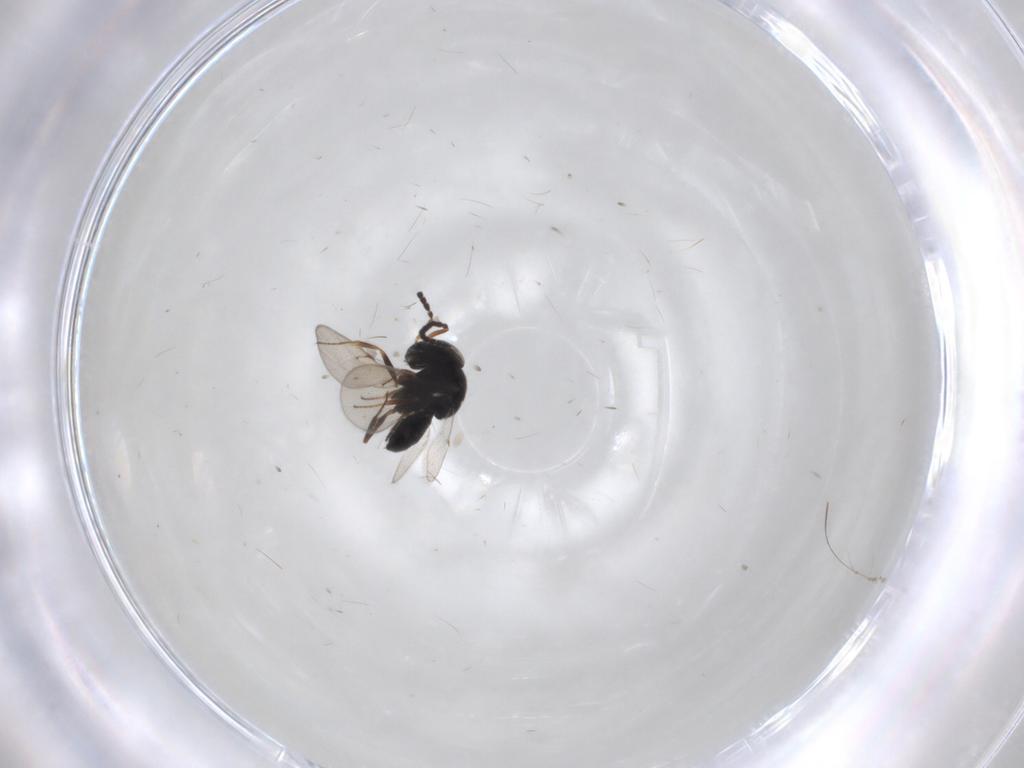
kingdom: Animalia
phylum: Arthropoda
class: Insecta
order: Hymenoptera
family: Scelionidae
